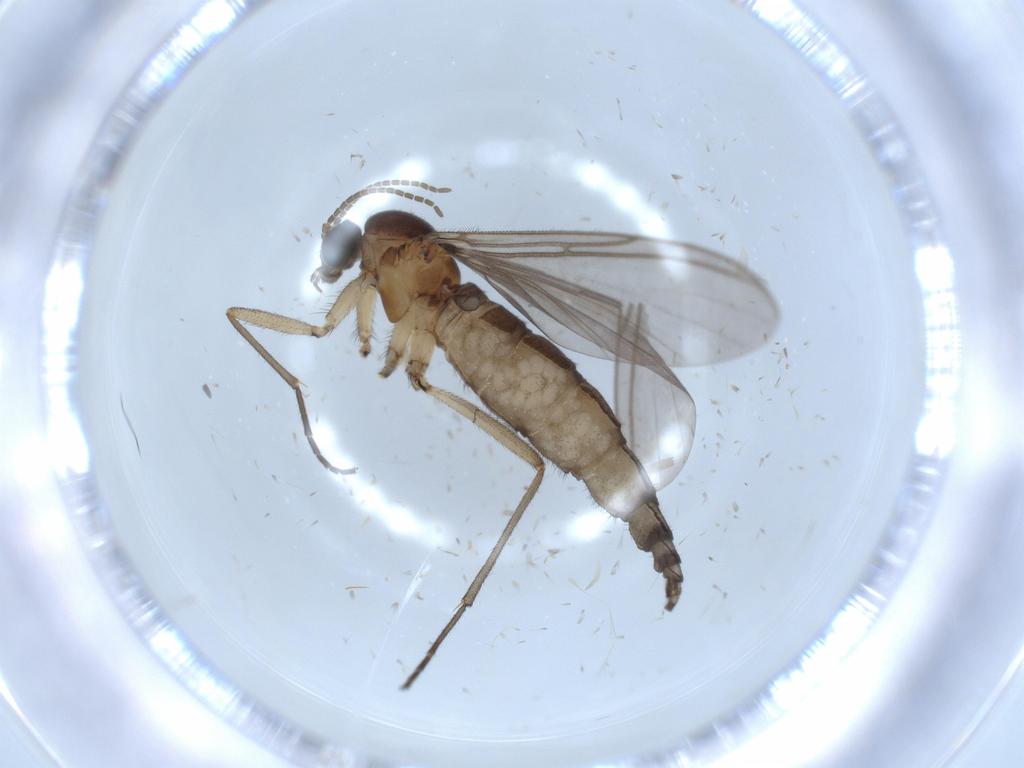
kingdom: Animalia
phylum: Arthropoda
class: Insecta
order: Diptera
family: Sciaridae
